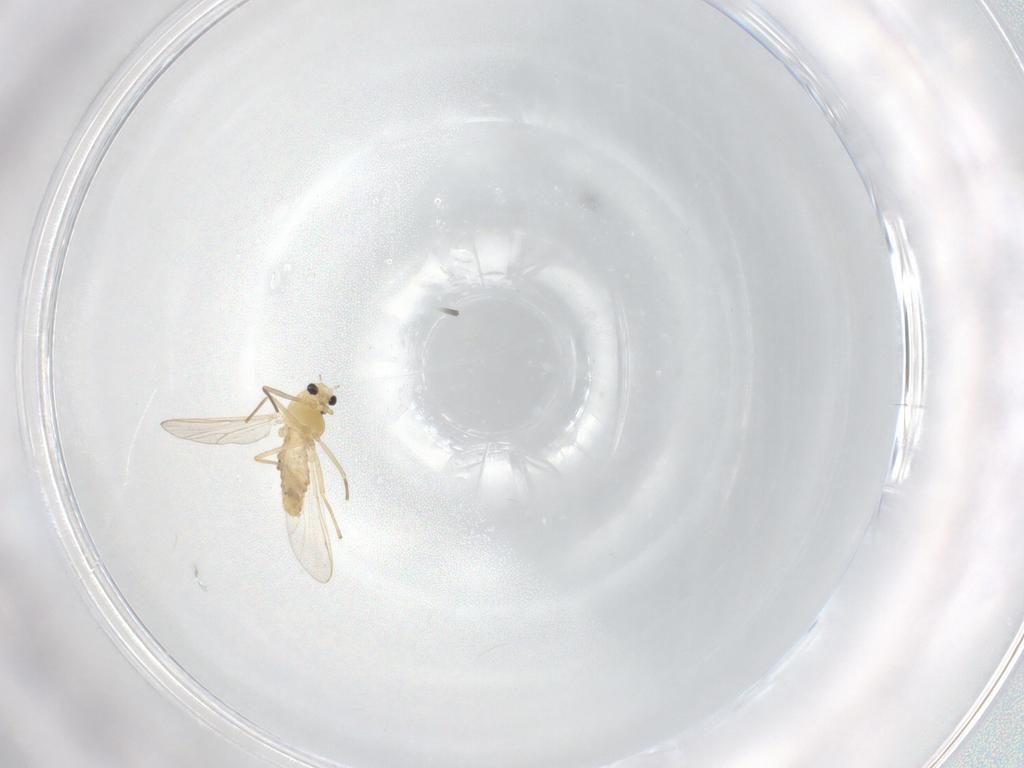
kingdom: Animalia
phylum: Arthropoda
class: Insecta
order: Diptera
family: Chironomidae
